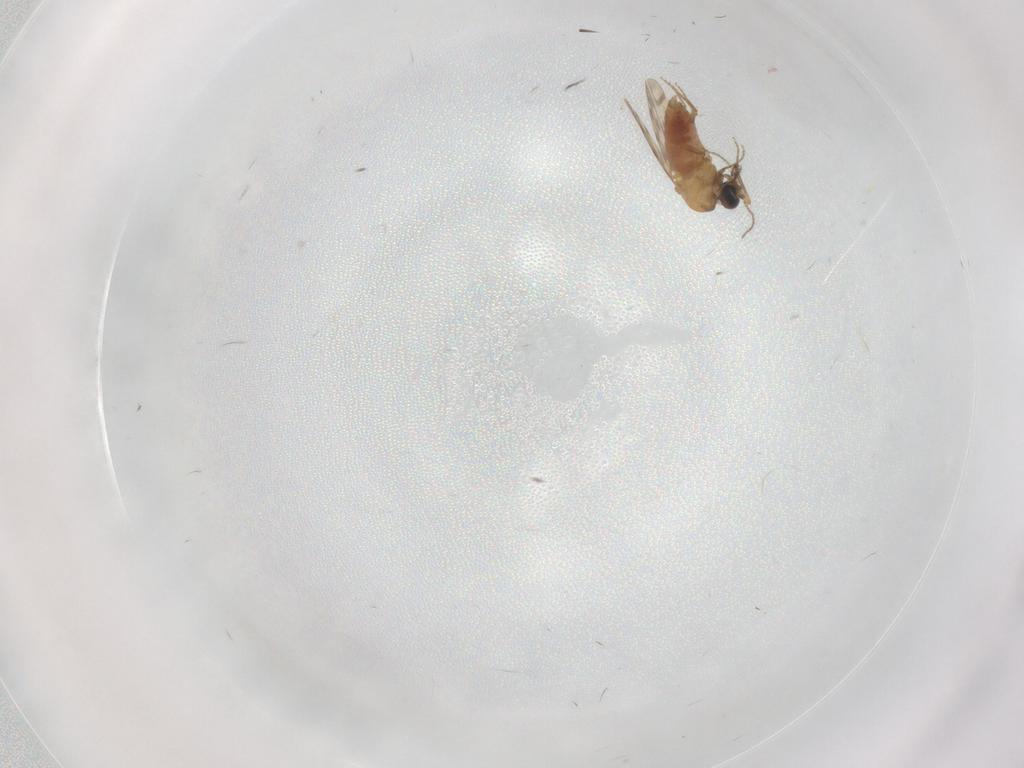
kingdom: Animalia
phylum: Arthropoda
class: Insecta
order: Diptera
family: Ceratopogonidae
